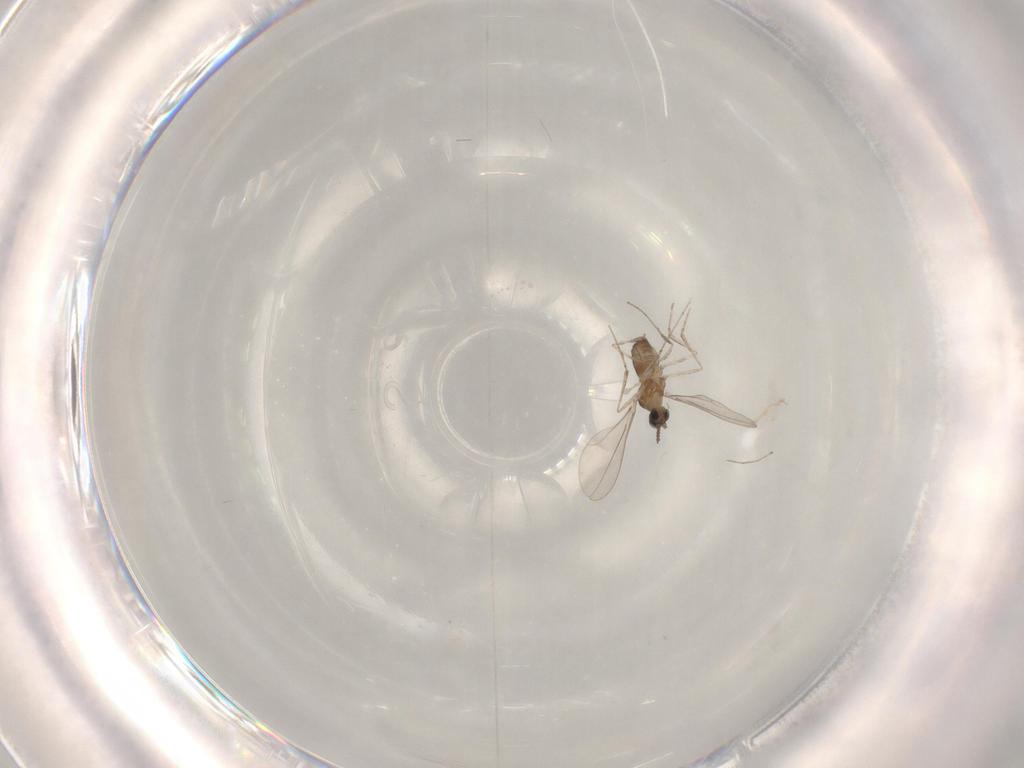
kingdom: Animalia
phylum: Arthropoda
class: Insecta
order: Diptera
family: Cecidomyiidae
